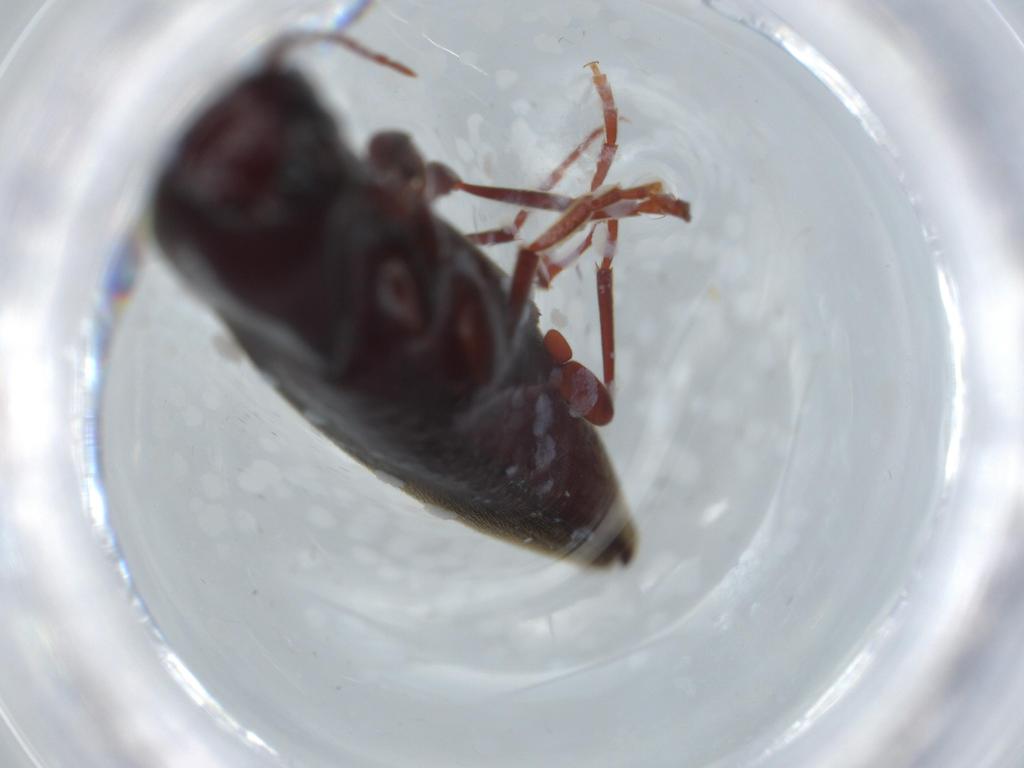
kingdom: Animalia
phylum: Arthropoda
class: Insecta
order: Coleoptera
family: Eucnemidae
